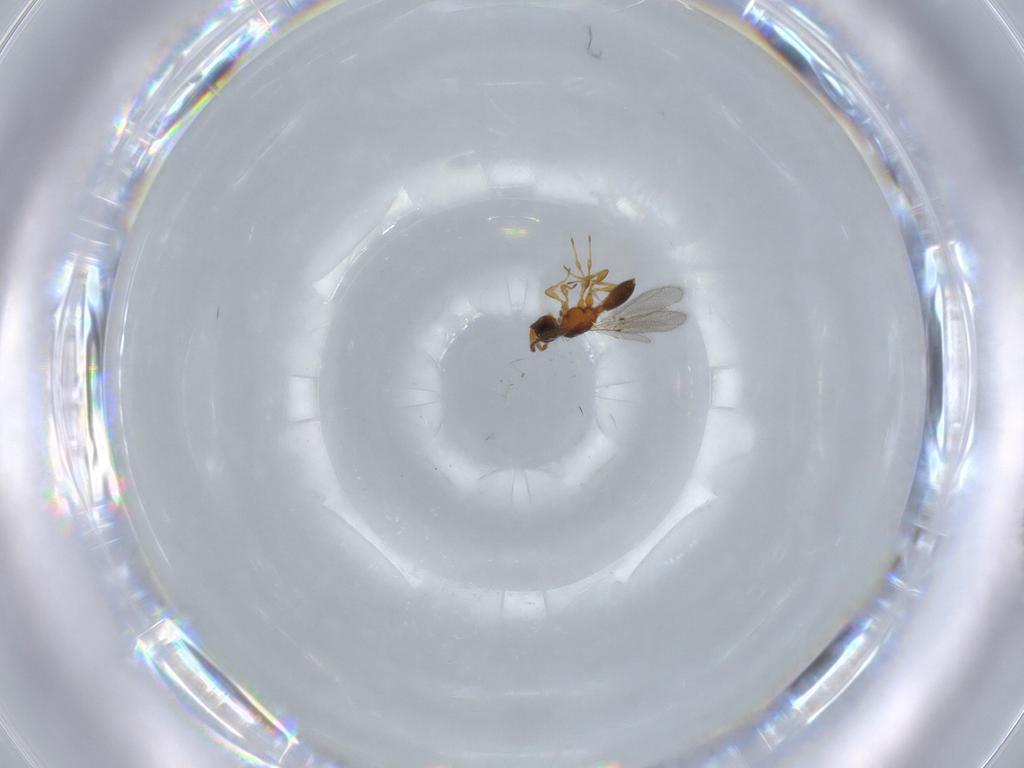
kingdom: Animalia
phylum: Arthropoda
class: Insecta
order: Hymenoptera
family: Diapriidae
